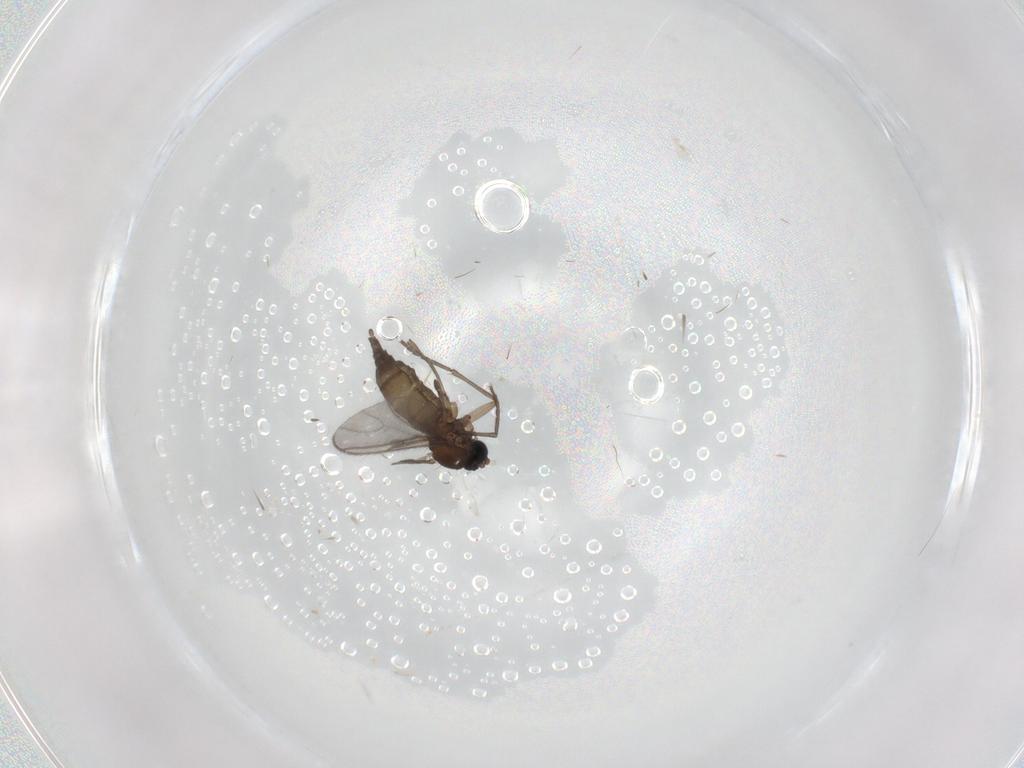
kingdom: Animalia
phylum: Arthropoda
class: Insecta
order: Diptera
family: Sciaridae
